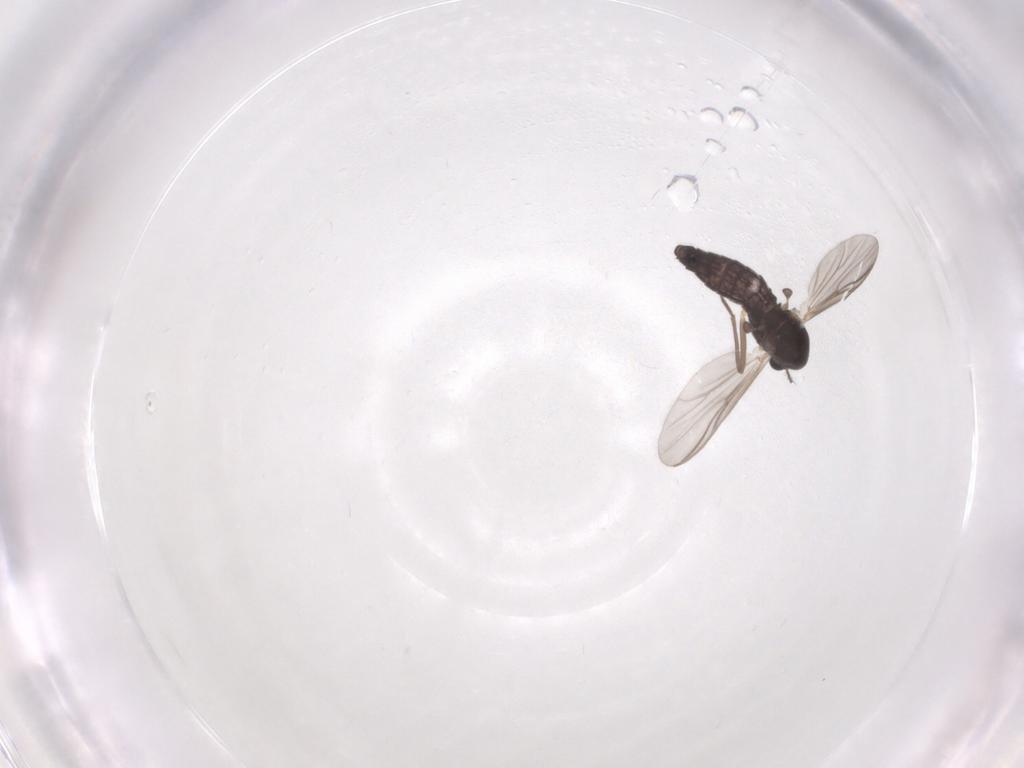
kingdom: Animalia
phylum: Arthropoda
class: Insecta
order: Diptera
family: Chironomidae
